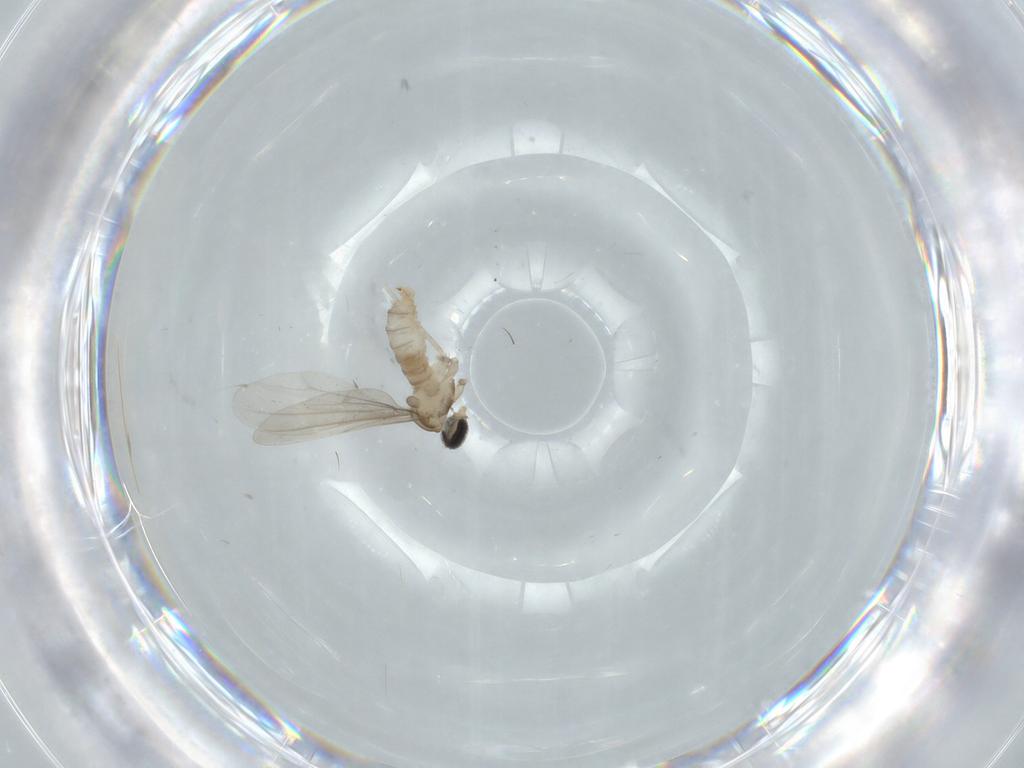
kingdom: Animalia
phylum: Arthropoda
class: Insecta
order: Diptera
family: Cecidomyiidae
